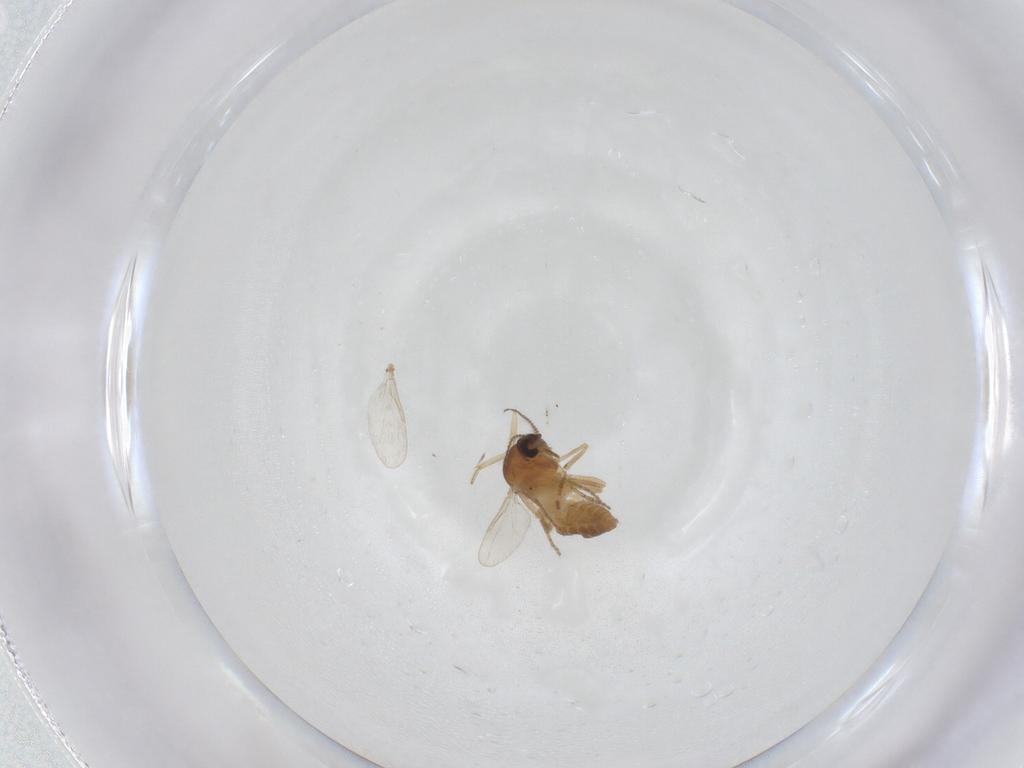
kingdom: Animalia
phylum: Arthropoda
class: Insecta
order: Diptera
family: Ceratopogonidae
